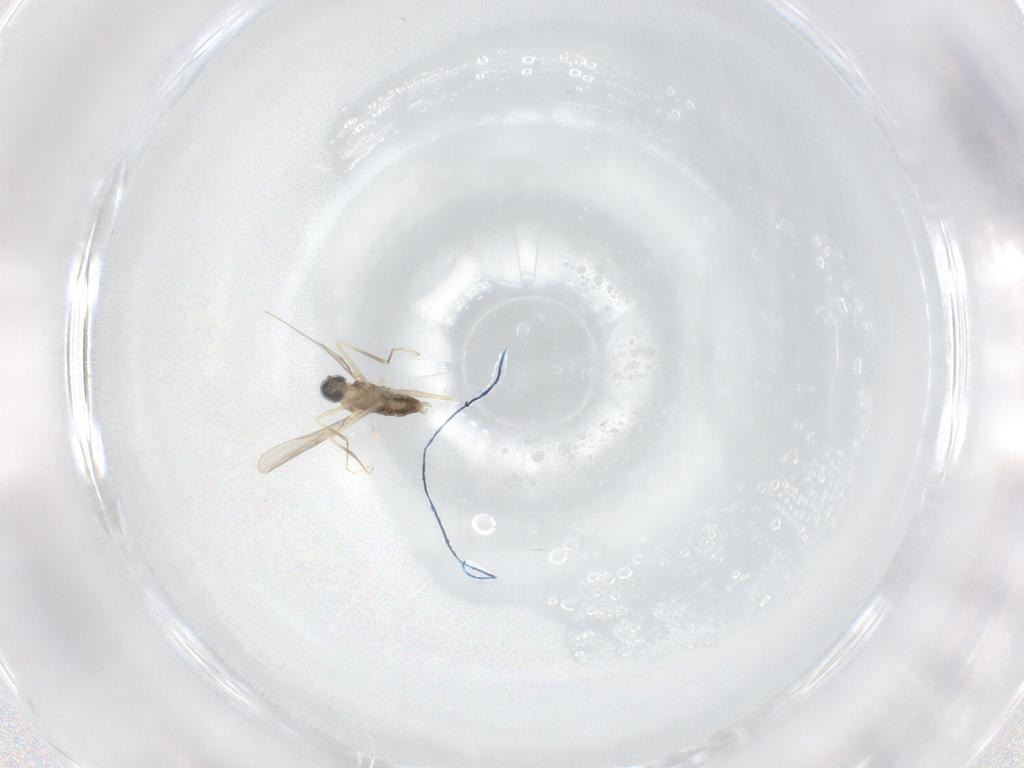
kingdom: Animalia
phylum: Arthropoda
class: Insecta
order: Diptera
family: Cecidomyiidae
